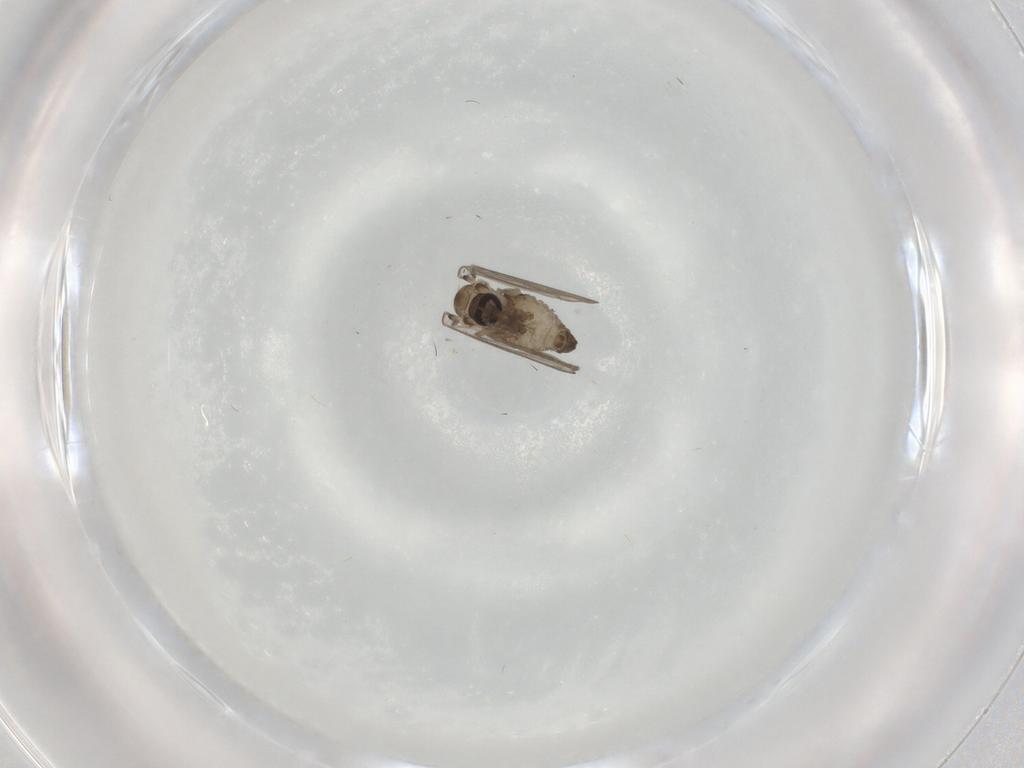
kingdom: Animalia
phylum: Arthropoda
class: Insecta
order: Diptera
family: Psychodidae
